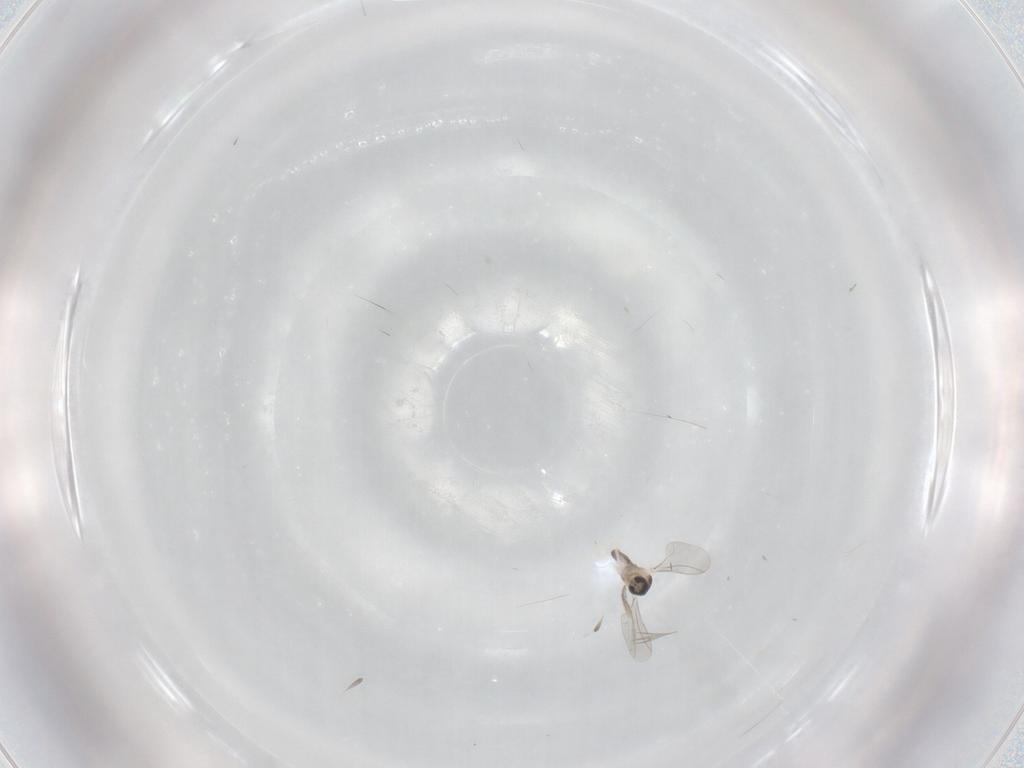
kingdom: Animalia
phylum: Arthropoda
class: Insecta
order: Diptera
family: Cecidomyiidae
